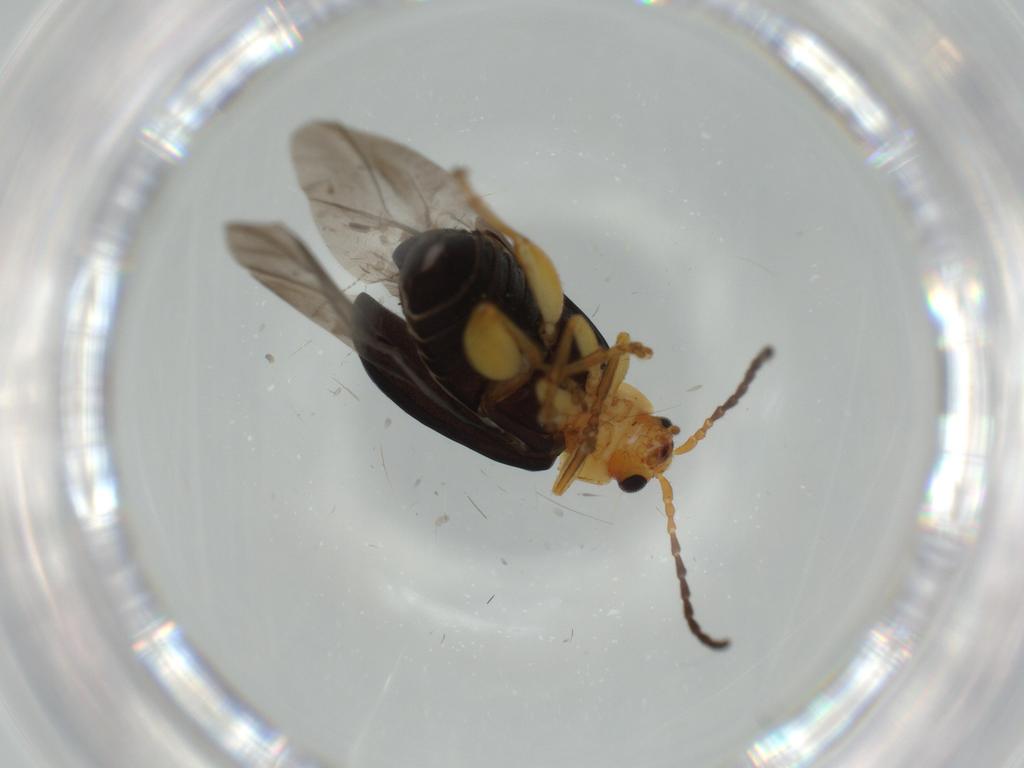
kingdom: Animalia
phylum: Arthropoda
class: Insecta
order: Coleoptera
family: Chrysomelidae
